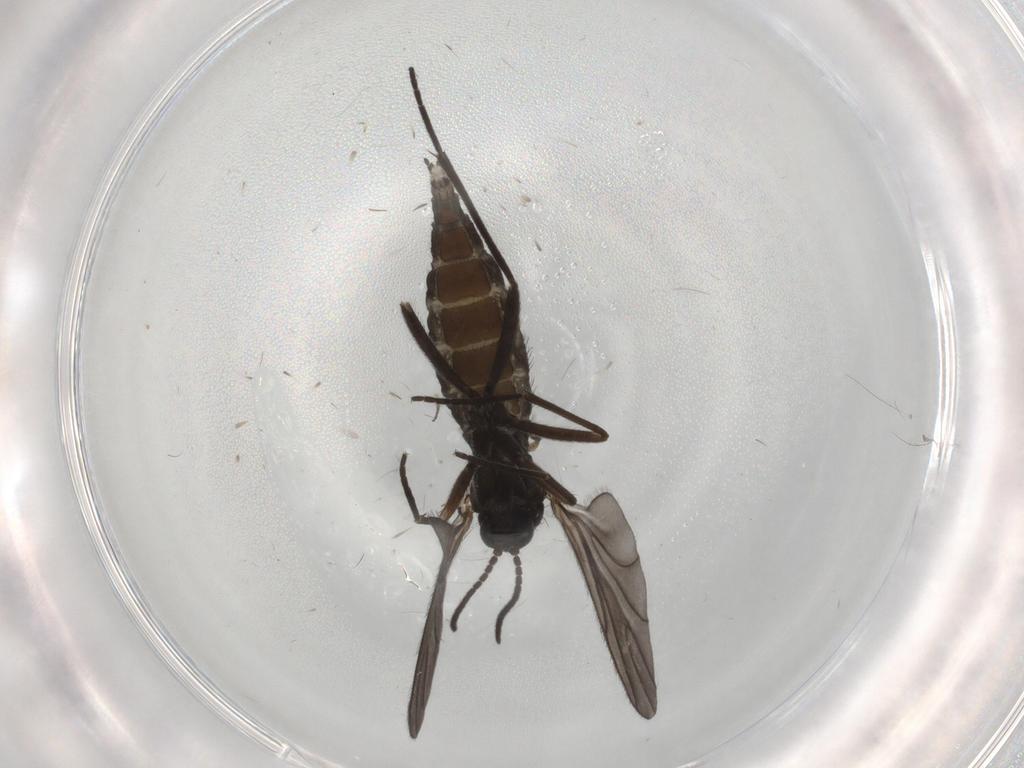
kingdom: Animalia
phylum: Arthropoda
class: Insecta
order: Diptera
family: Sciaridae
